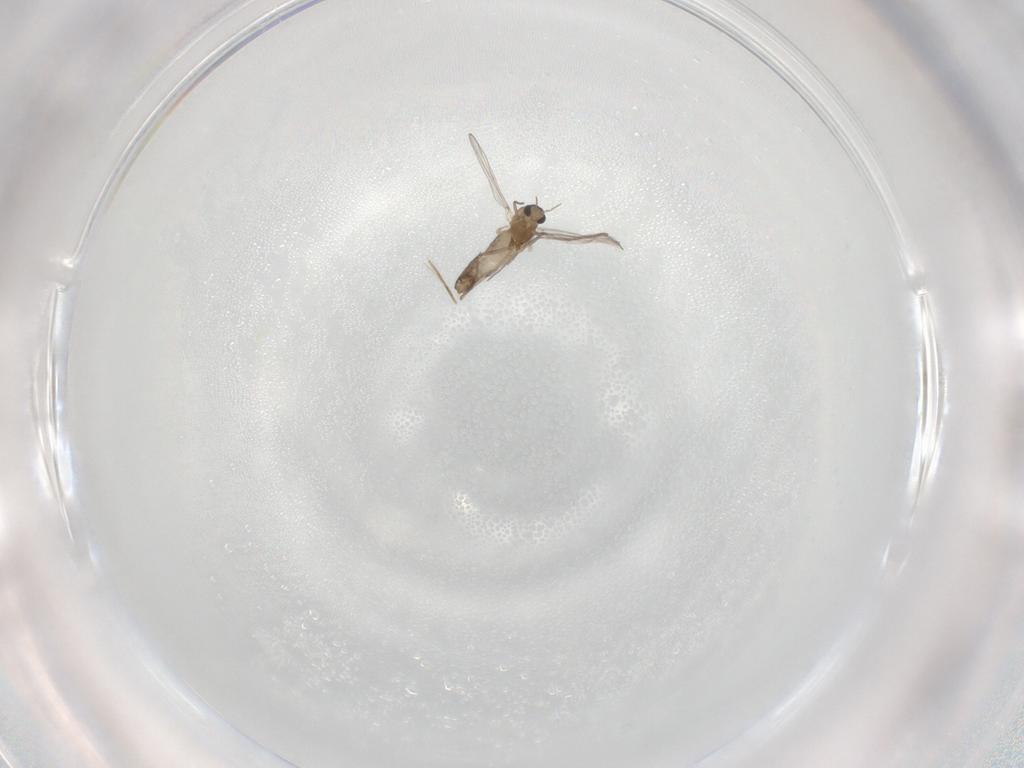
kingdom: Animalia
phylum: Arthropoda
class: Insecta
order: Diptera
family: Chironomidae
